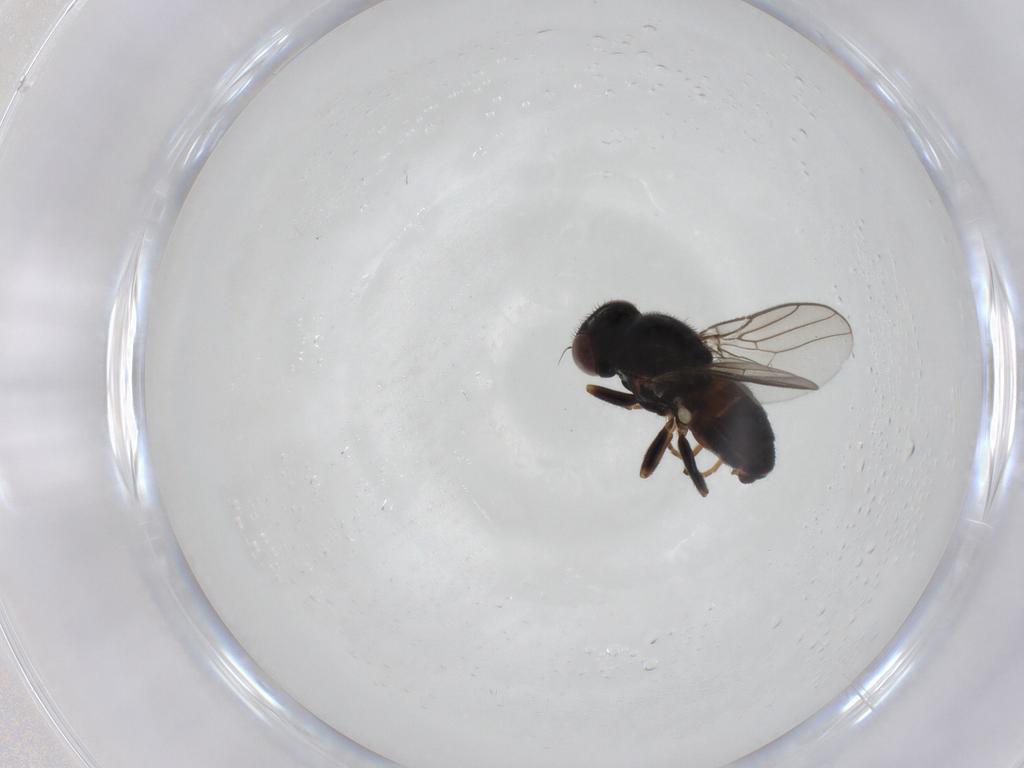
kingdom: Animalia
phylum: Arthropoda
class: Insecta
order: Diptera
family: Chloropidae
